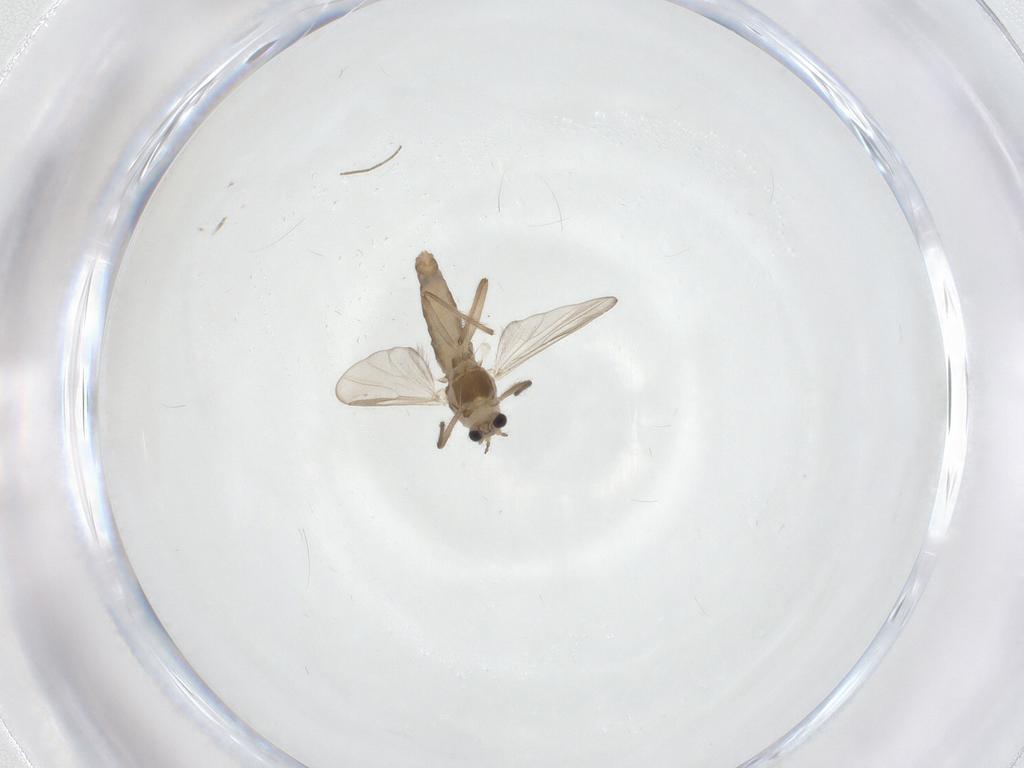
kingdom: Animalia
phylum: Arthropoda
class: Insecta
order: Diptera
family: Chironomidae
